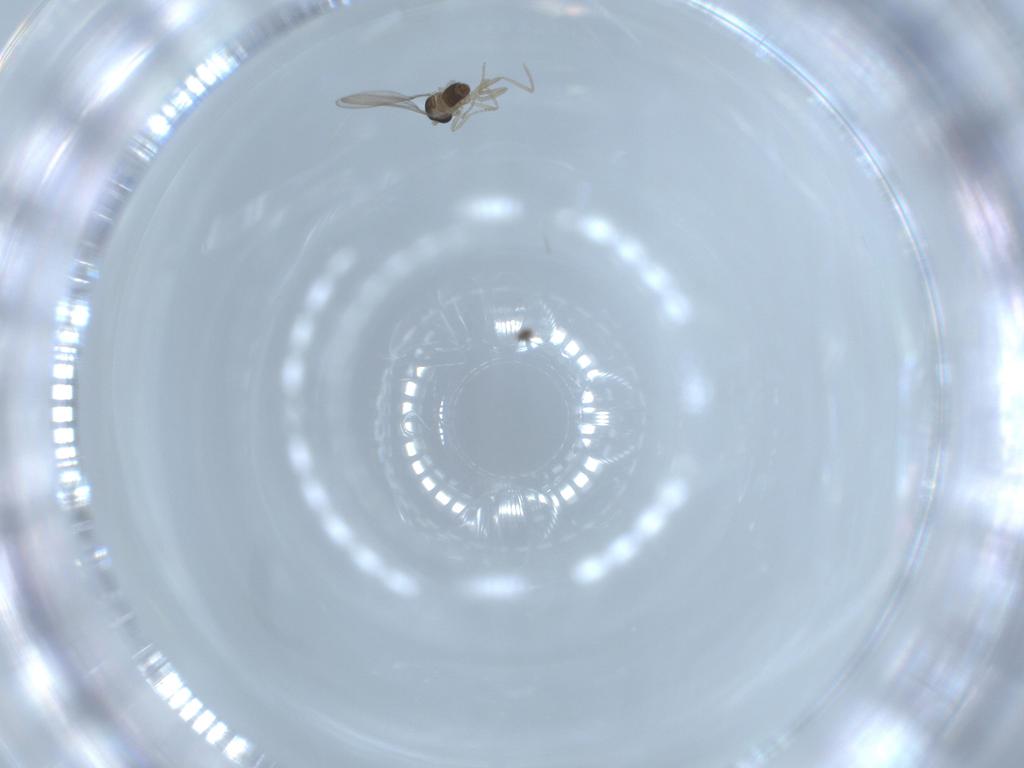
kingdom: Animalia
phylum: Arthropoda
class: Insecta
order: Diptera
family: Cecidomyiidae
